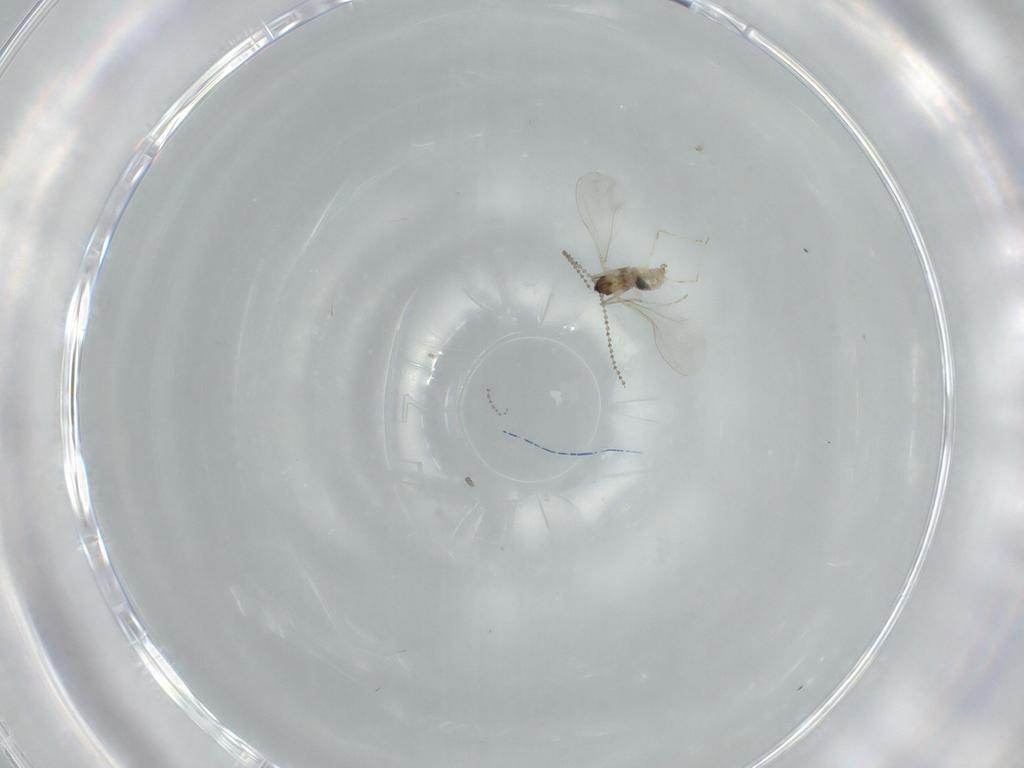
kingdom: Animalia
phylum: Arthropoda
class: Insecta
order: Diptera
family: Cecidomyiidae
